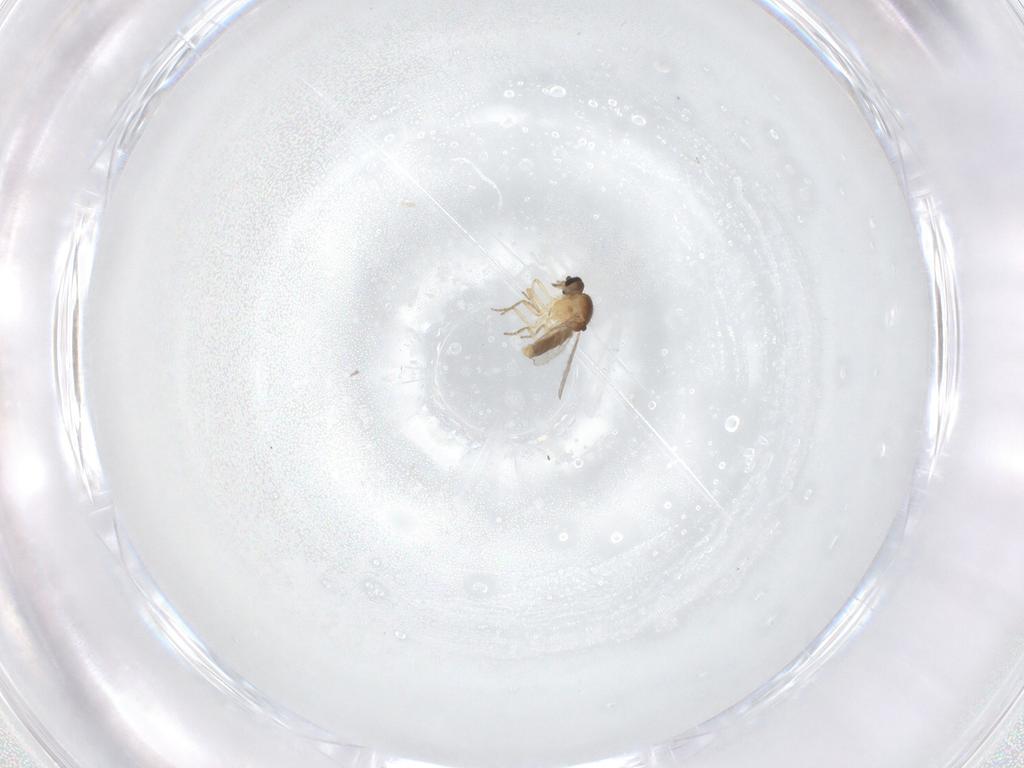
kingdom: Animalia
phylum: Arthropoda
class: Insecta
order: Diptera
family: Ceratopogonidae
